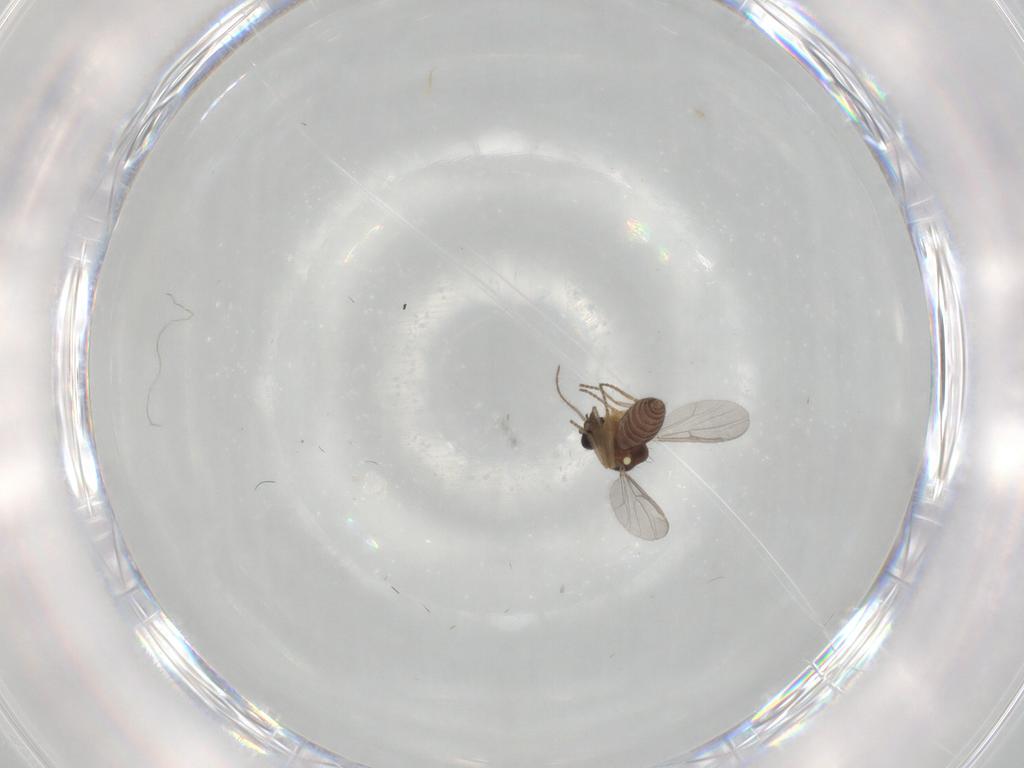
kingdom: Animalia
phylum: Arthropoda
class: Insecta
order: Diptera
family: Ceratopogonidae
